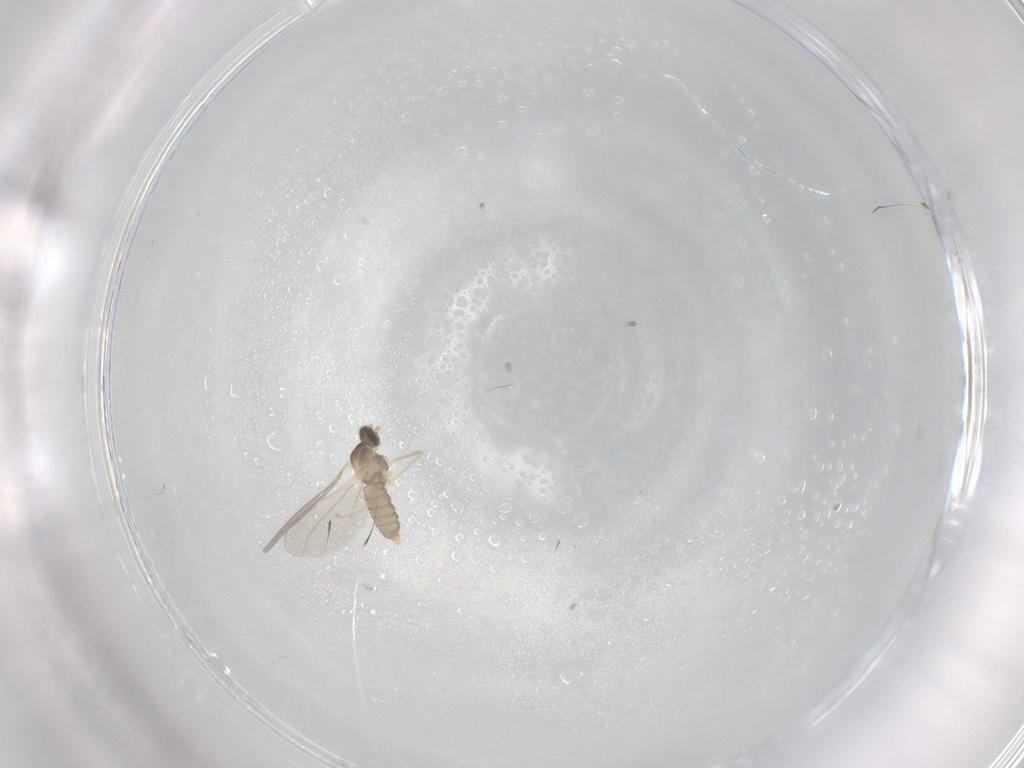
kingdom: Animalia
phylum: Arthropoda
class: Insecta
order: Diptera
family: Cecidomyiidae
